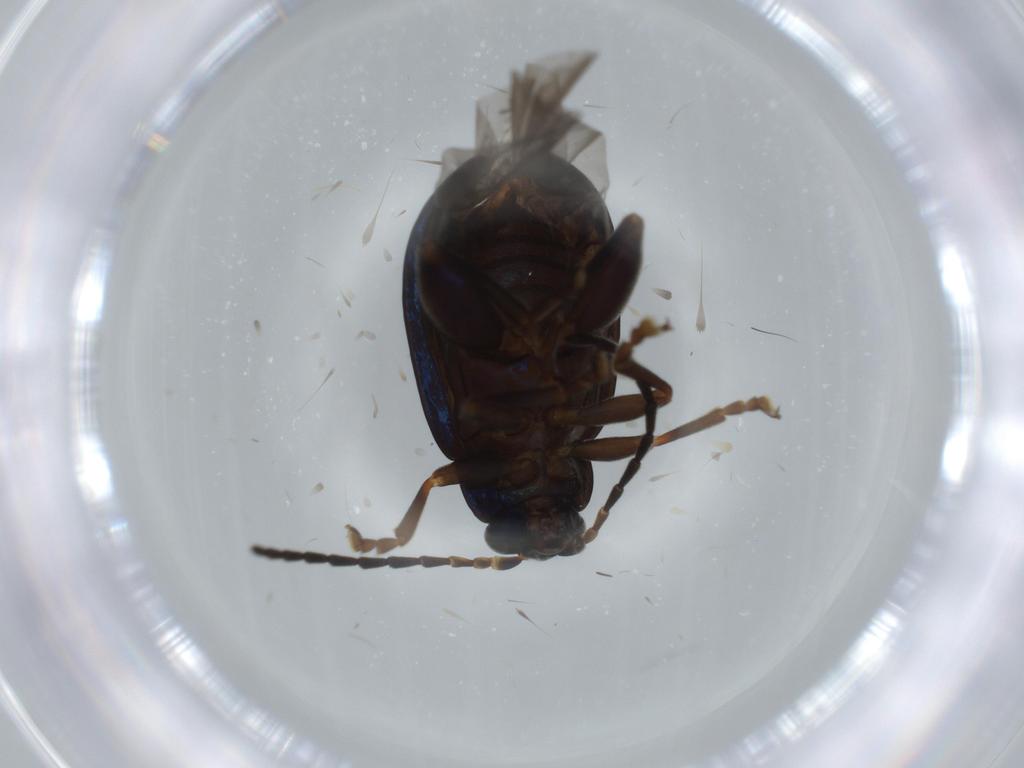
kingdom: Animalia
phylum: Arthropoda
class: Insecta
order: Coleoptera
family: Chrysomelidae
